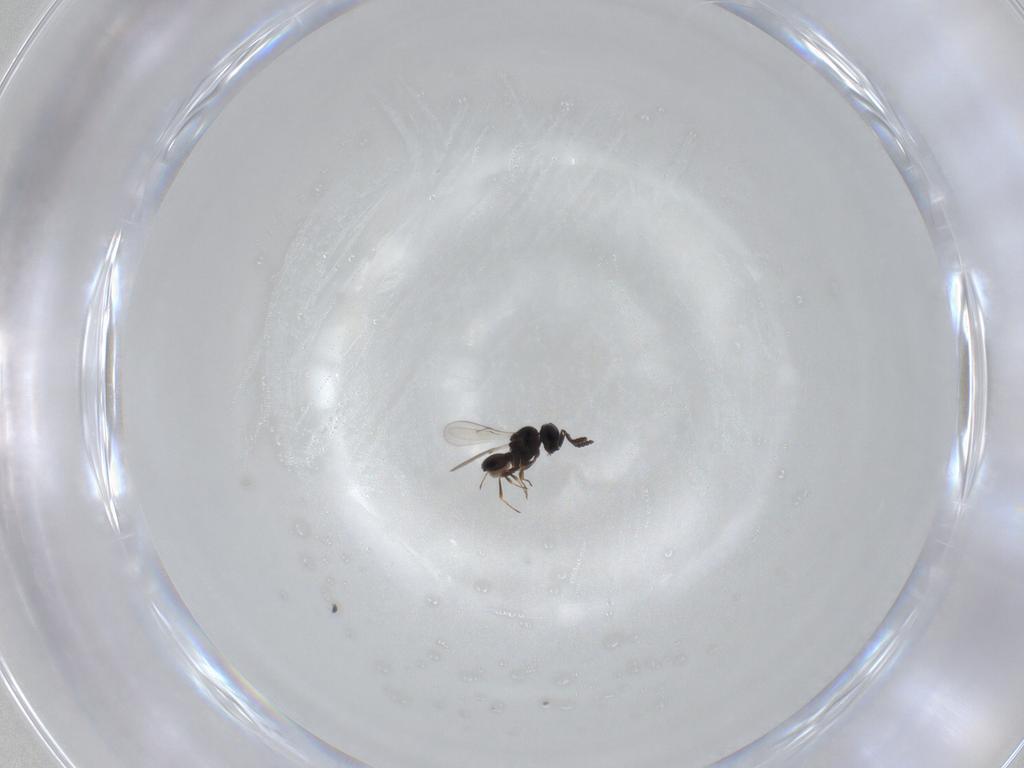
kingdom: Animalia
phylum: Arthropoda
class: Insecta
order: Hymenoptera
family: Scelionidae
